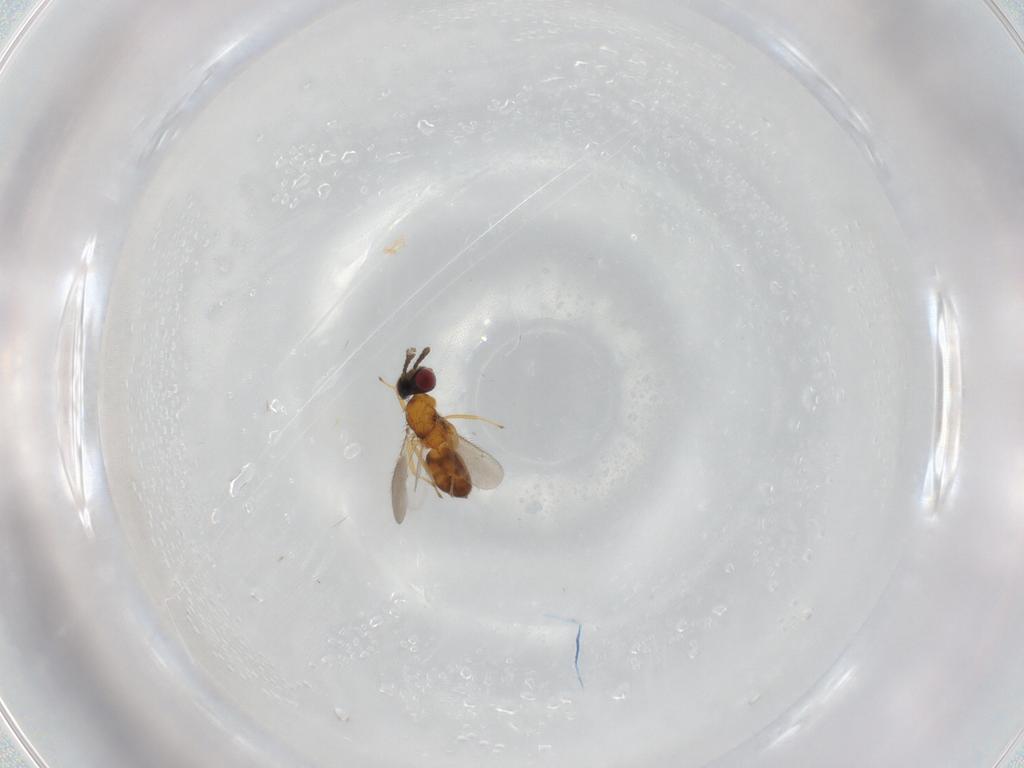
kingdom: Animalia
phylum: Arthropoda
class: Insecta
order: Hymenoptera
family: Eulophidae
